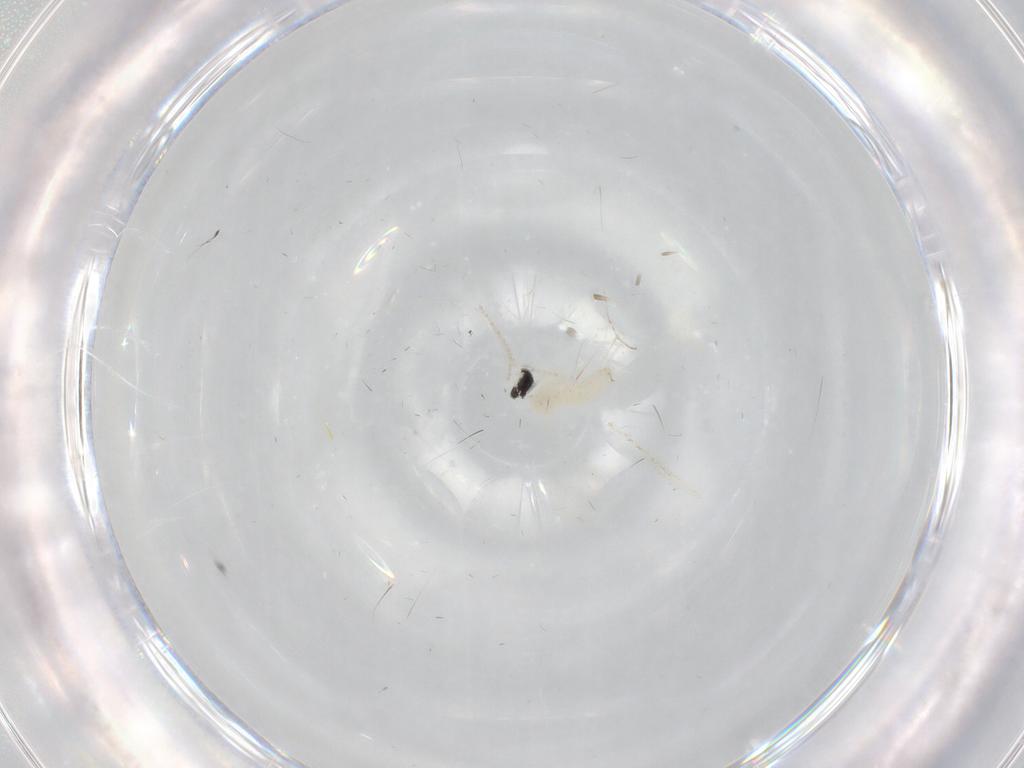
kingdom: Animalia
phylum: Arthropoda
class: Insecta
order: Diptera
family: Cecidomyiidae
